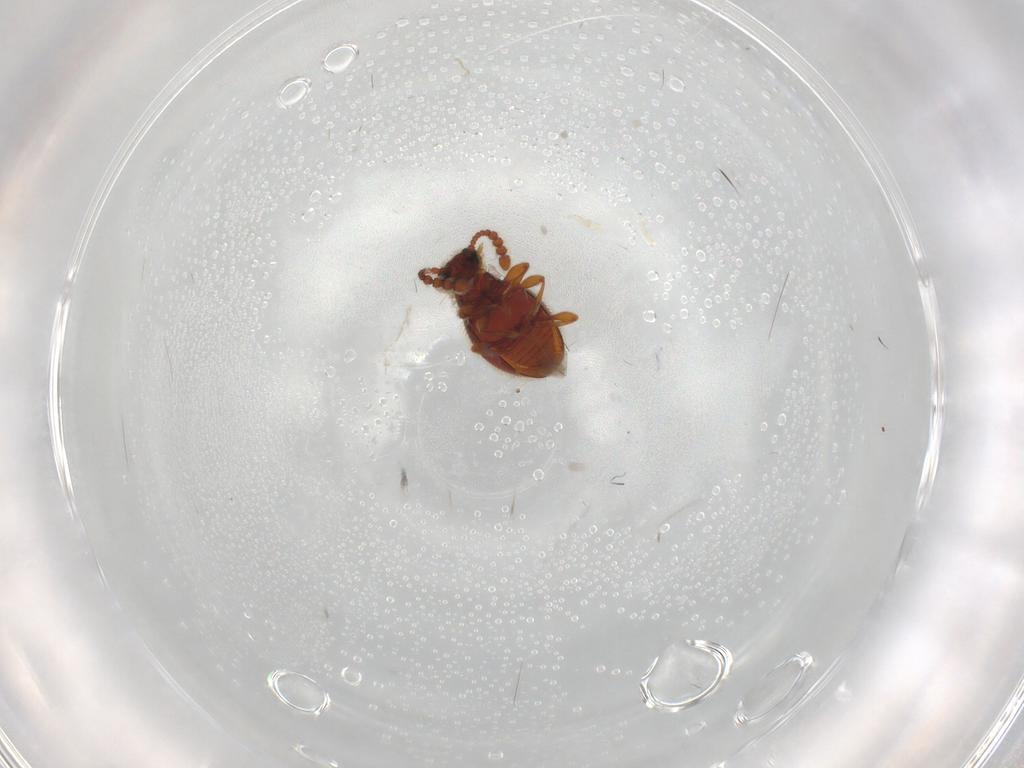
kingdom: Animalia
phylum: Arthropoda
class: Insecta
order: Coleoptera
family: Staphylinidae
